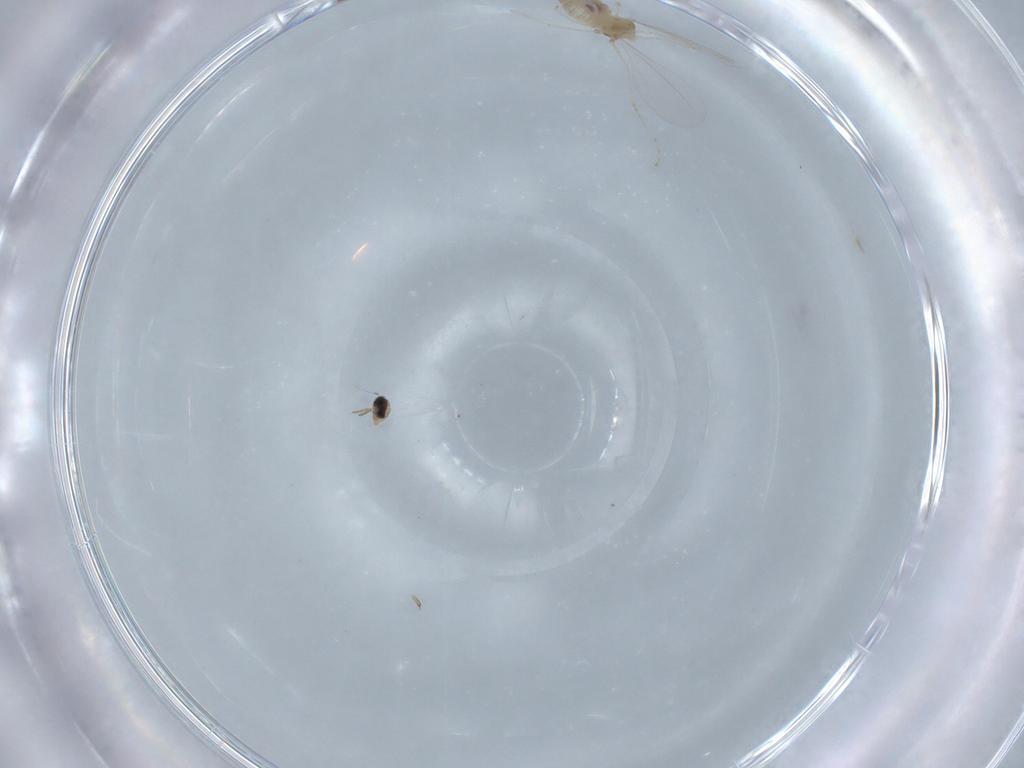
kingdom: Animalia
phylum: Arthropoda
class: Insecta
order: Diptera
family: Cecidomyiidae
